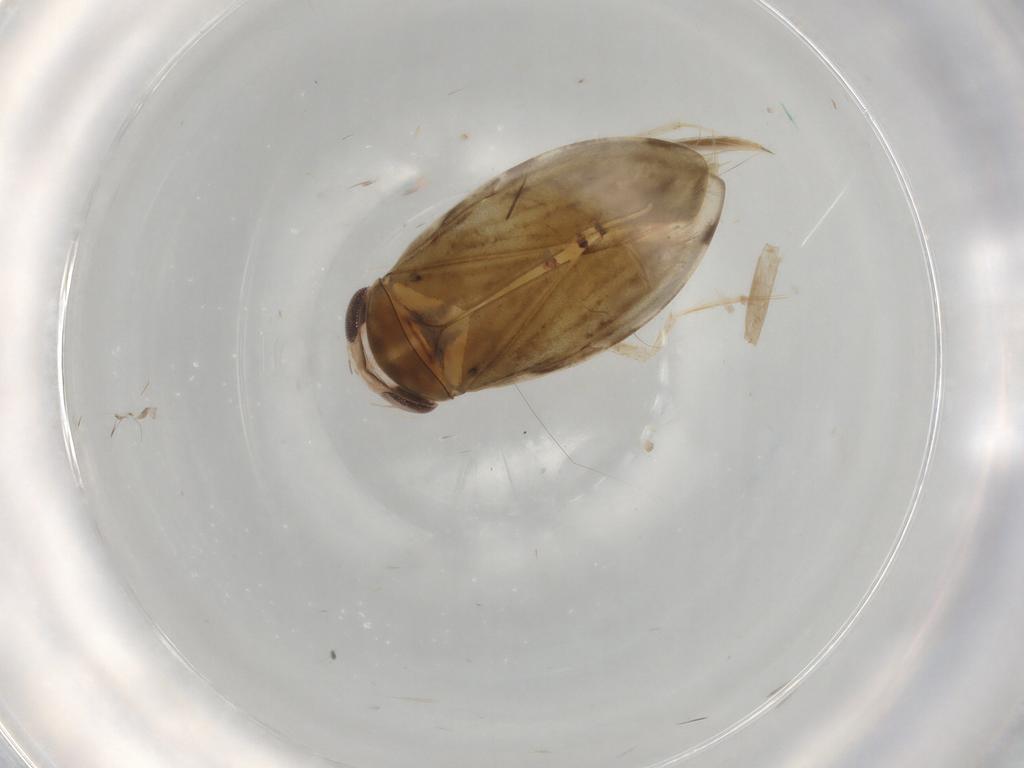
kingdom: Animalia
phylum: Arthropoda
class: Insecta
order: Hemiptera
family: Corixidae
